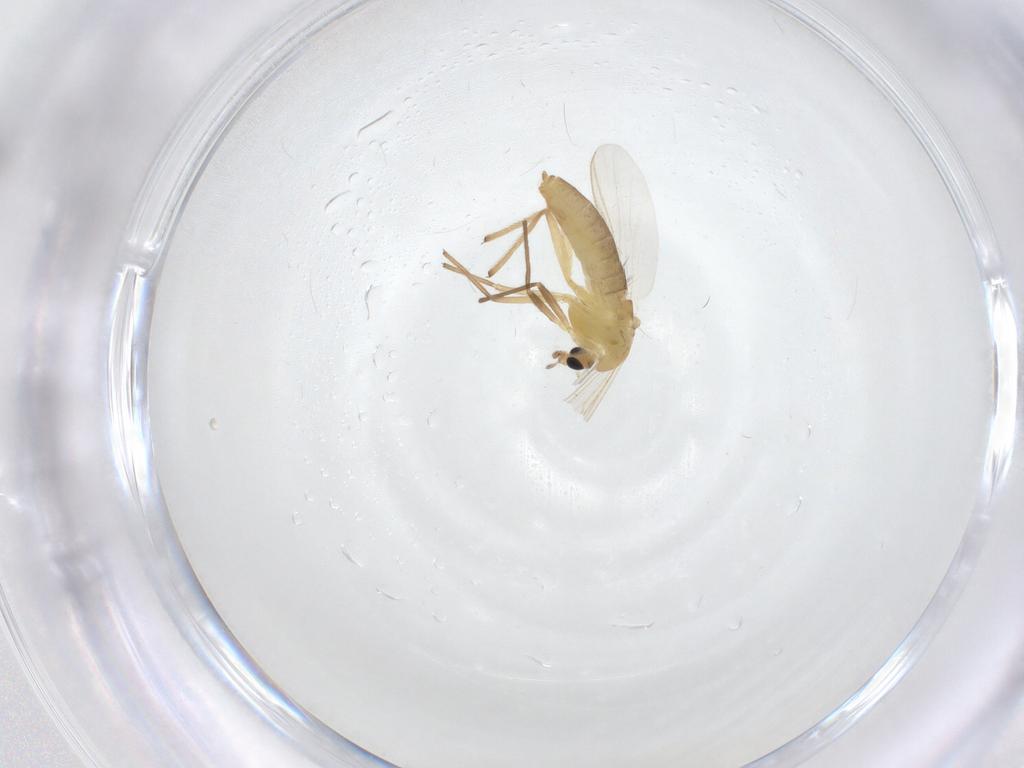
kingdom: Animalia
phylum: Arthropoda
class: Insecta
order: Diptera
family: Chironomidae
